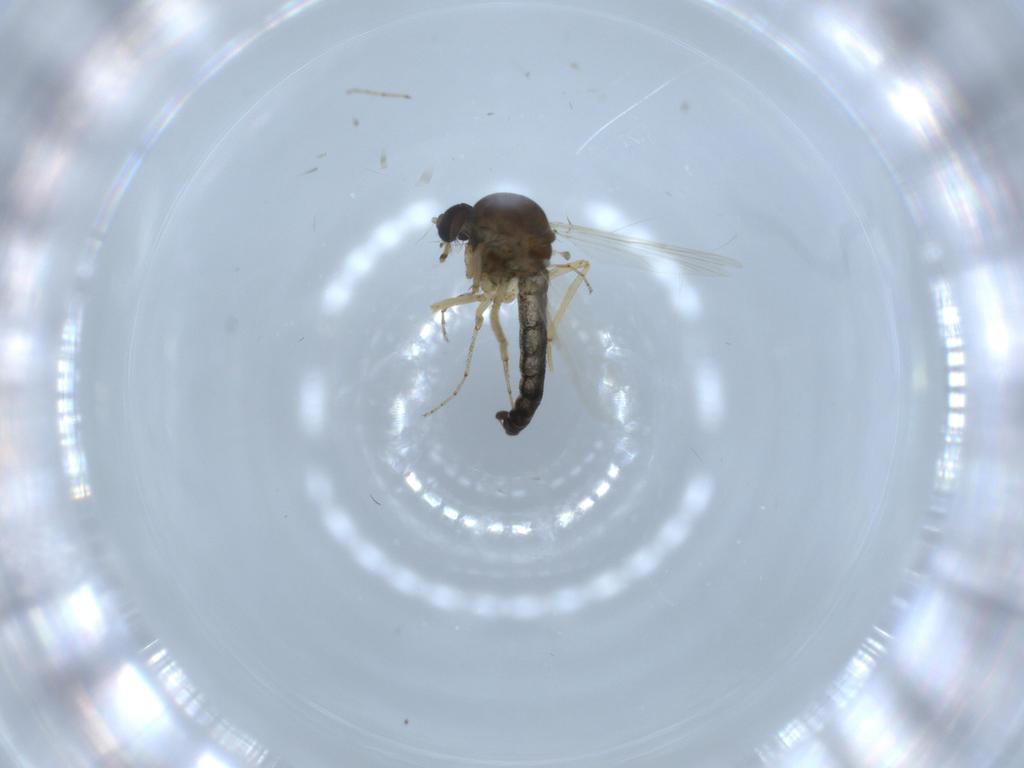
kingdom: Animalia
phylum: Arthropoda
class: Insecta
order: Diptera
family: Ceratopogonidae
